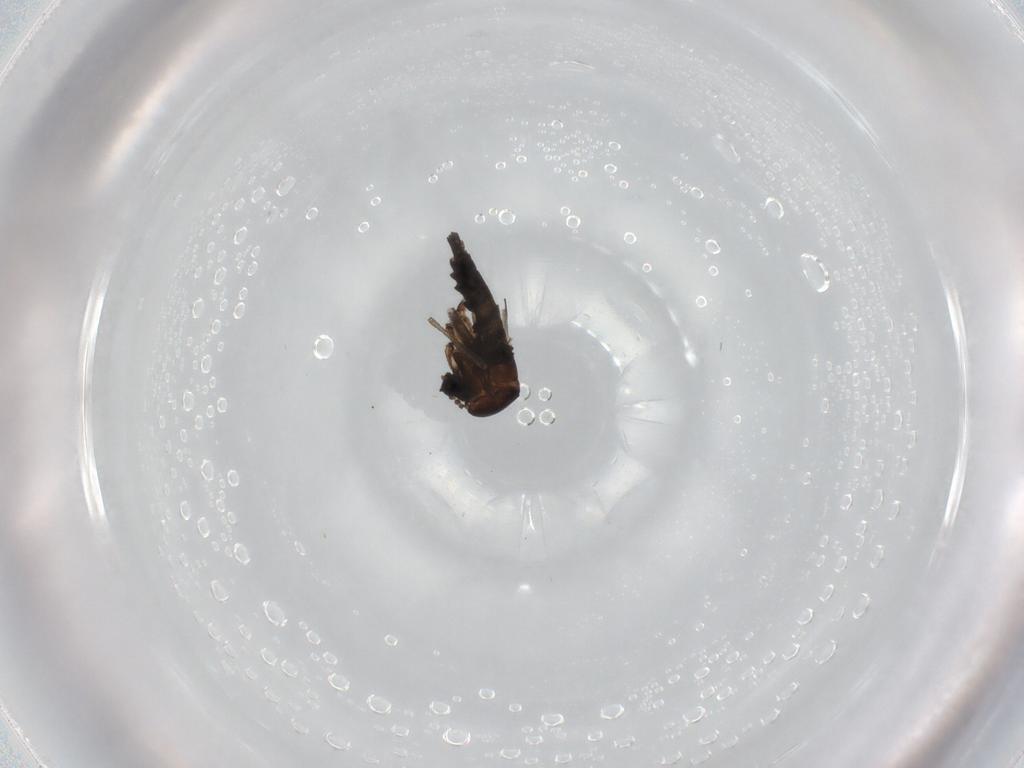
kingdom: Animalia
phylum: Arthropoda
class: Insecta
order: Diptera
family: Sciaridae
